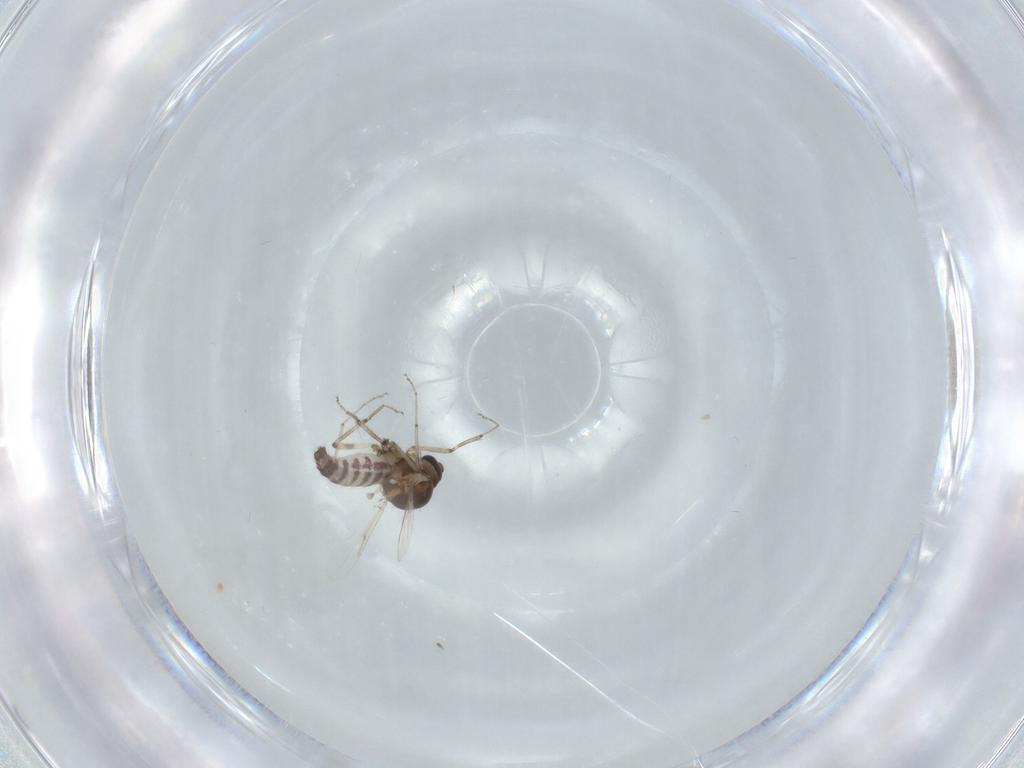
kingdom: Animalia
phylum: Arthropoda
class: Insecta
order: Diptera
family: Ceratopogonidae
